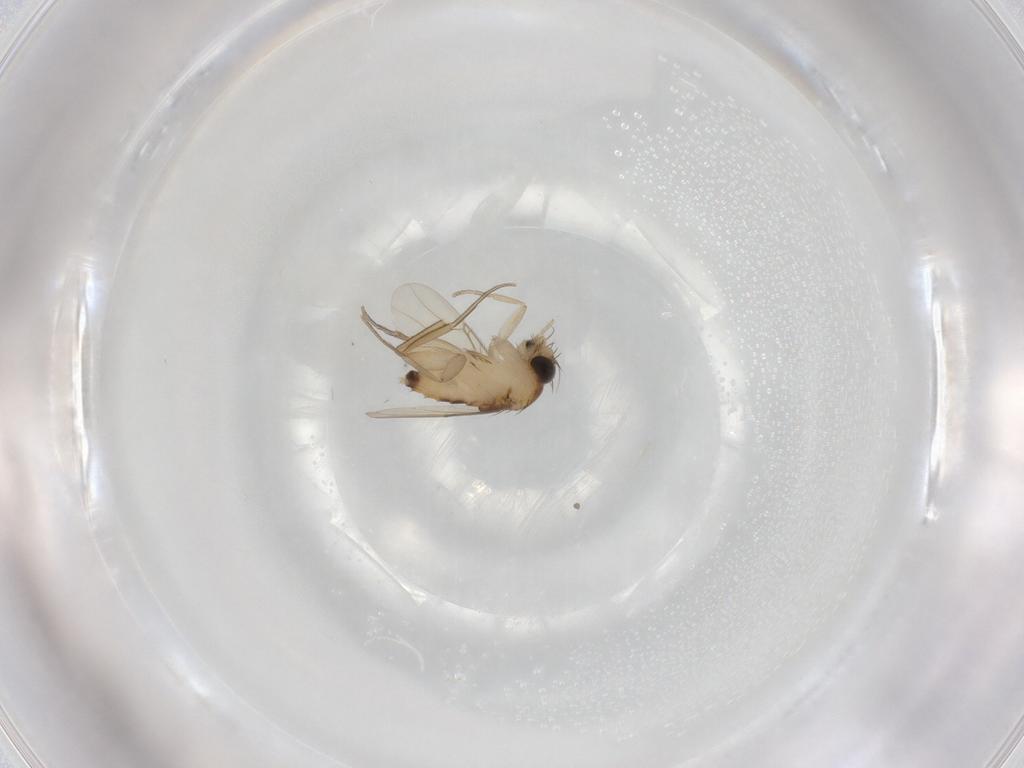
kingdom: Animalia
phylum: Arthropoda
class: Insecta
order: Diptera
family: Phoridae
